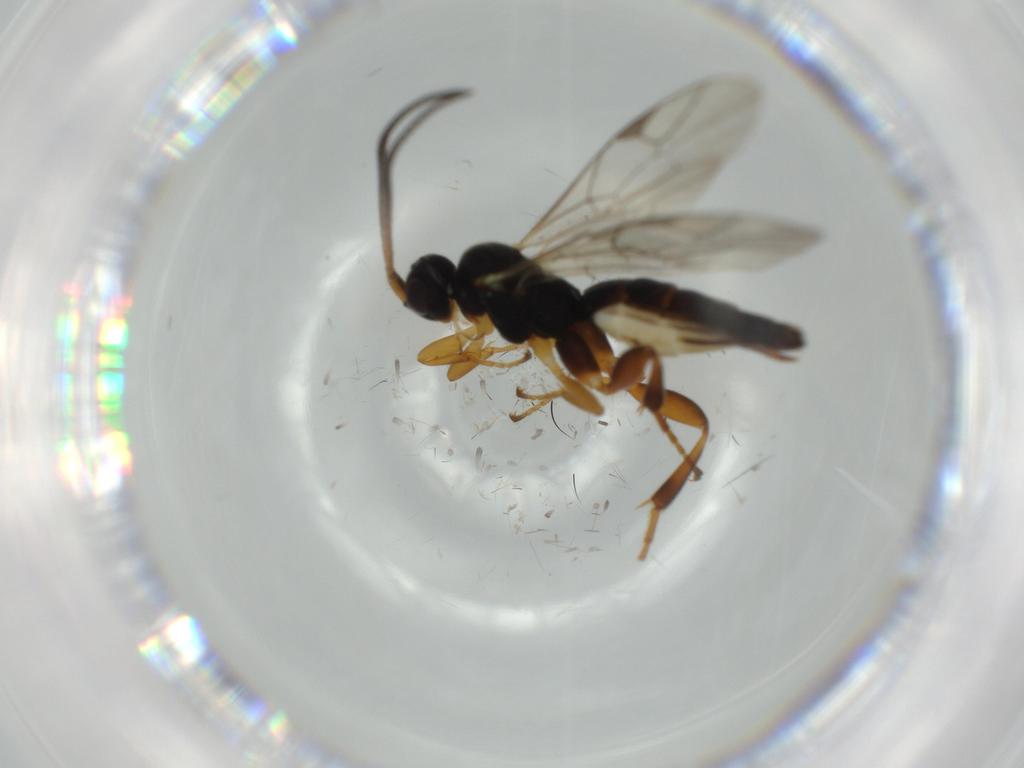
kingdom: Animalia
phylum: Arthropoda
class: Insecta
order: Hymenoptera
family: Ichneumonidae
